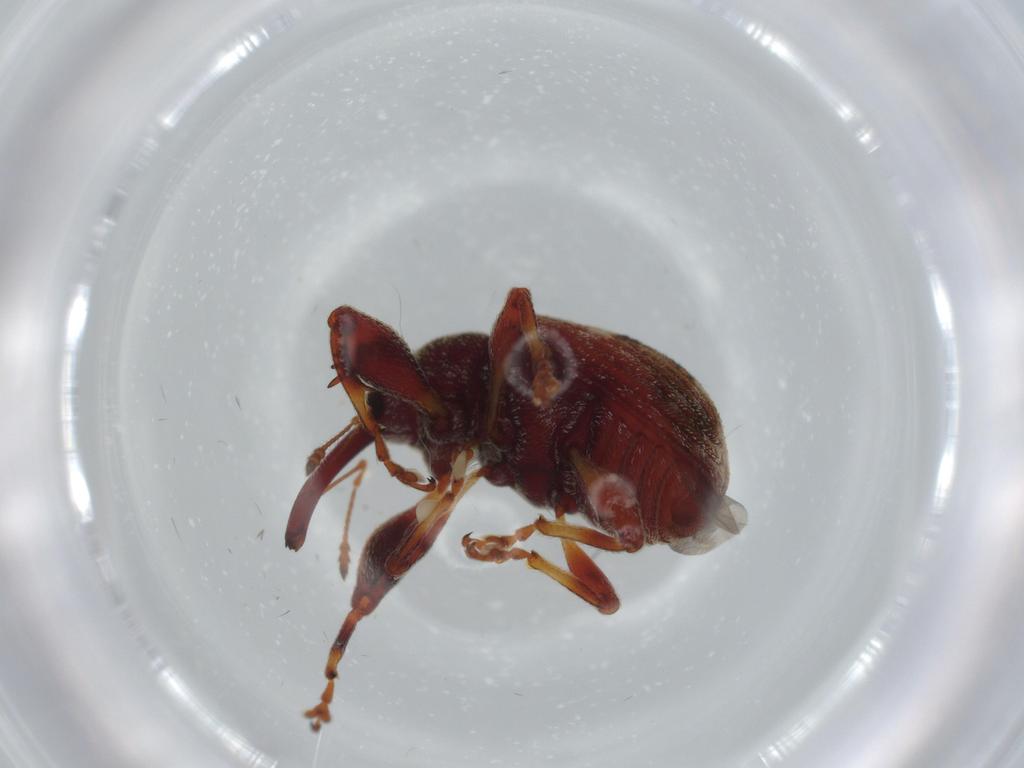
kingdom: Animalia
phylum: Arthropoda
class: Insecta
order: Coleoptera
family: Curculionidae
